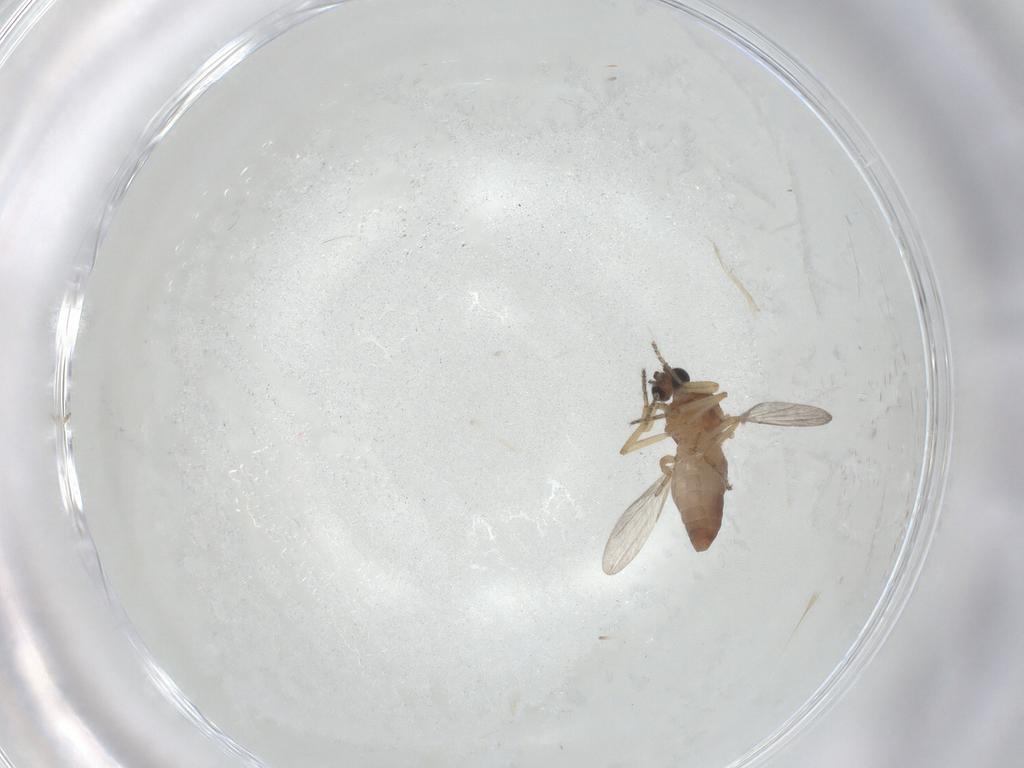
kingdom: Animalia
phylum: Arthropoda
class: Insecta
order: Diptera
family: Ceratopogonidae
